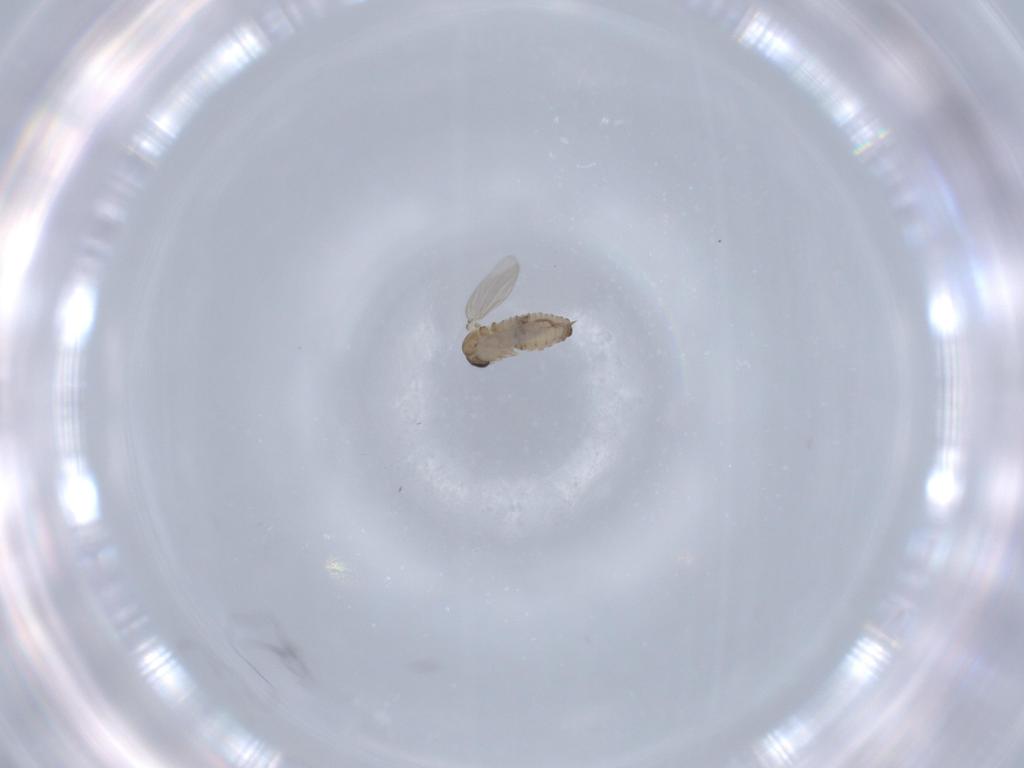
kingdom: Animalia
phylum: Arthropoda
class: Insecta
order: Diptera
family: Psychodidae
